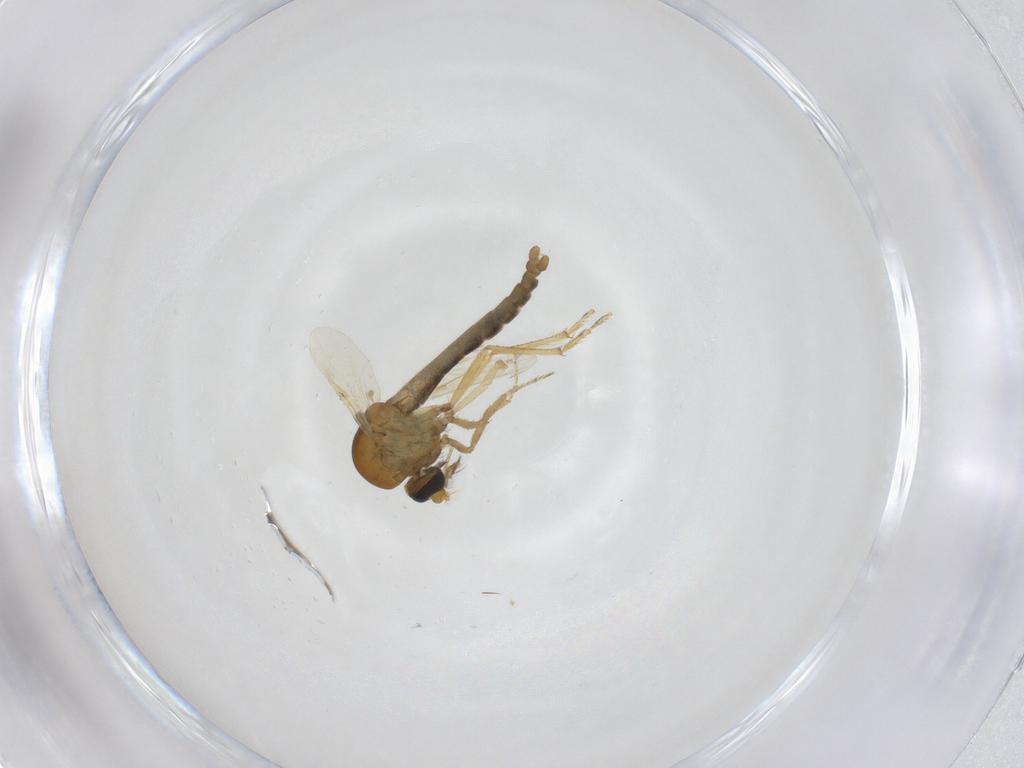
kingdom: Animalia
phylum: Arthropoda
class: Insecta
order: Diptera
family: Ceratopogonidae
